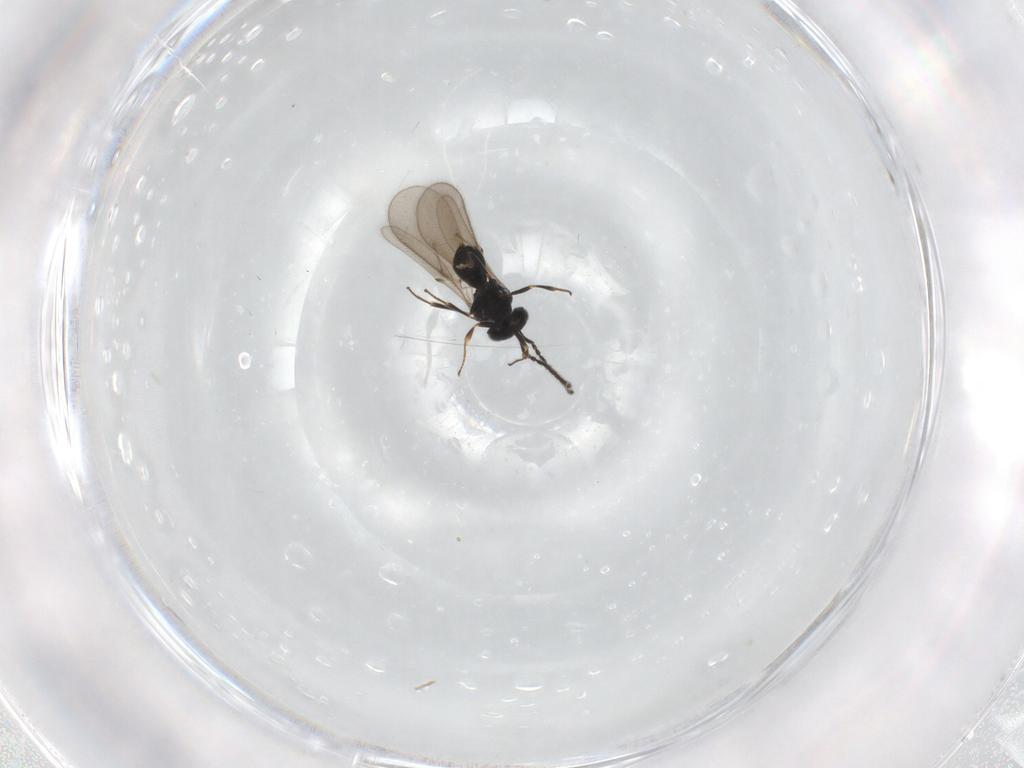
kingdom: Animalia
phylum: Arthropoda
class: Insecta
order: Hymenoptera
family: Scelionidae
